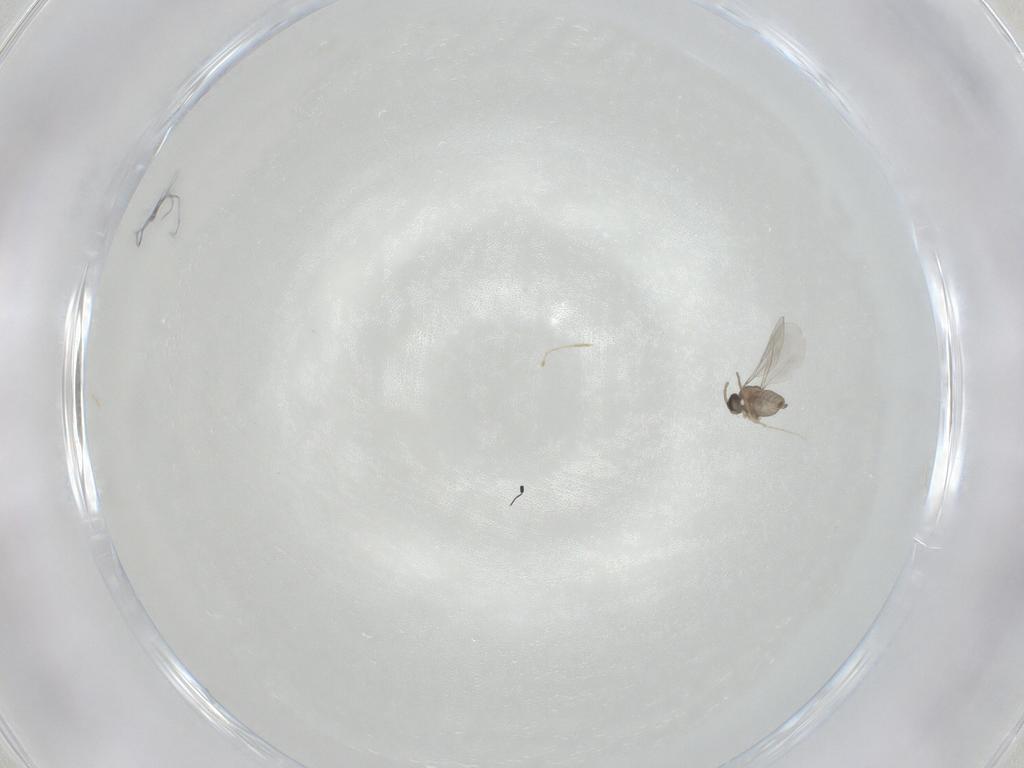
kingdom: Animalia
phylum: Arthropoda
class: Insecta
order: Diptera
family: Cecidomyiidae
